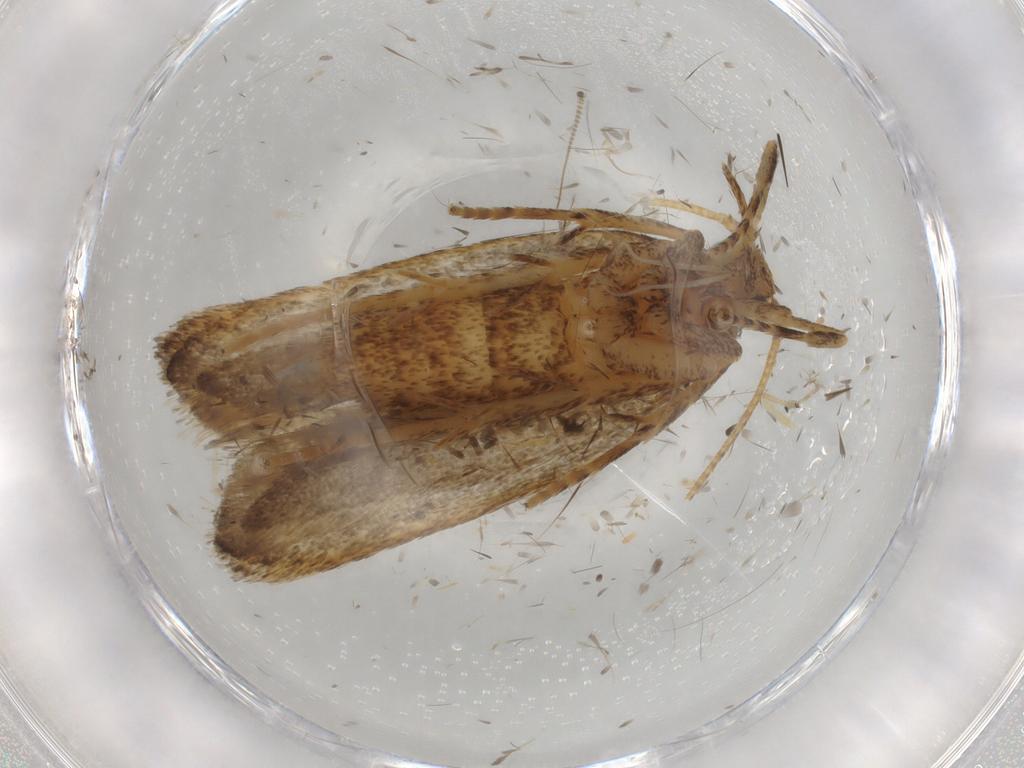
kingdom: Animalia
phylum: Arthropoda
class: Insecta
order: Lepidoptera
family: Autostichidae
